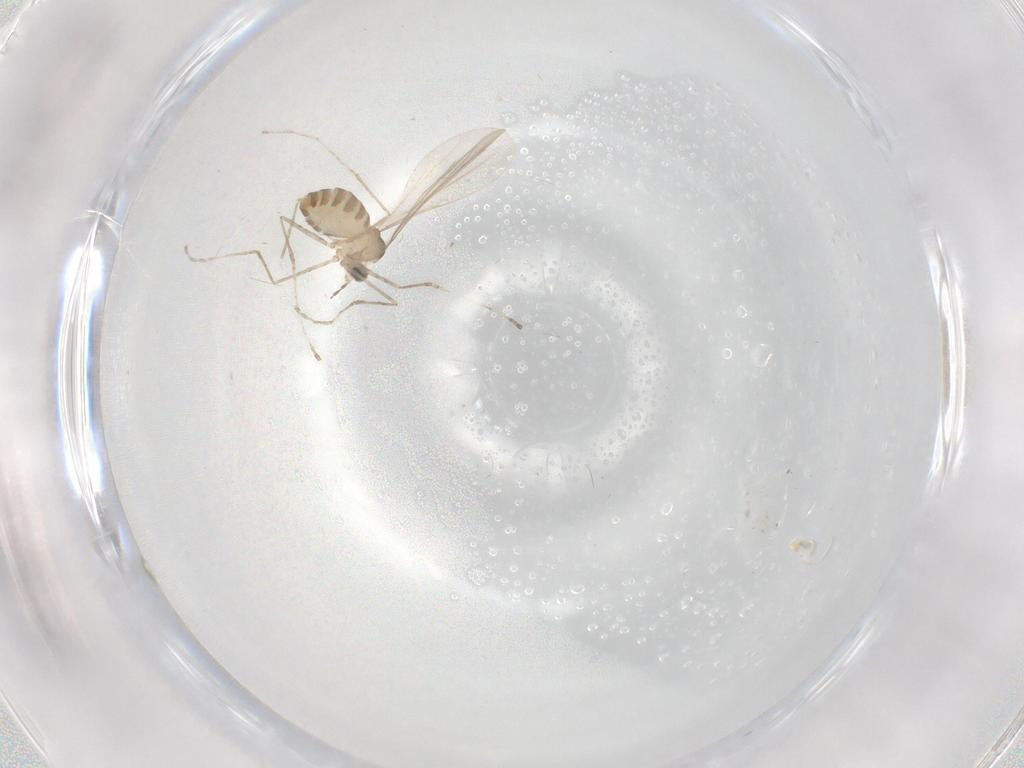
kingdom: Animalia
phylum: Arthropoda
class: Insecta
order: Diptera
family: Cecidomyiidae
